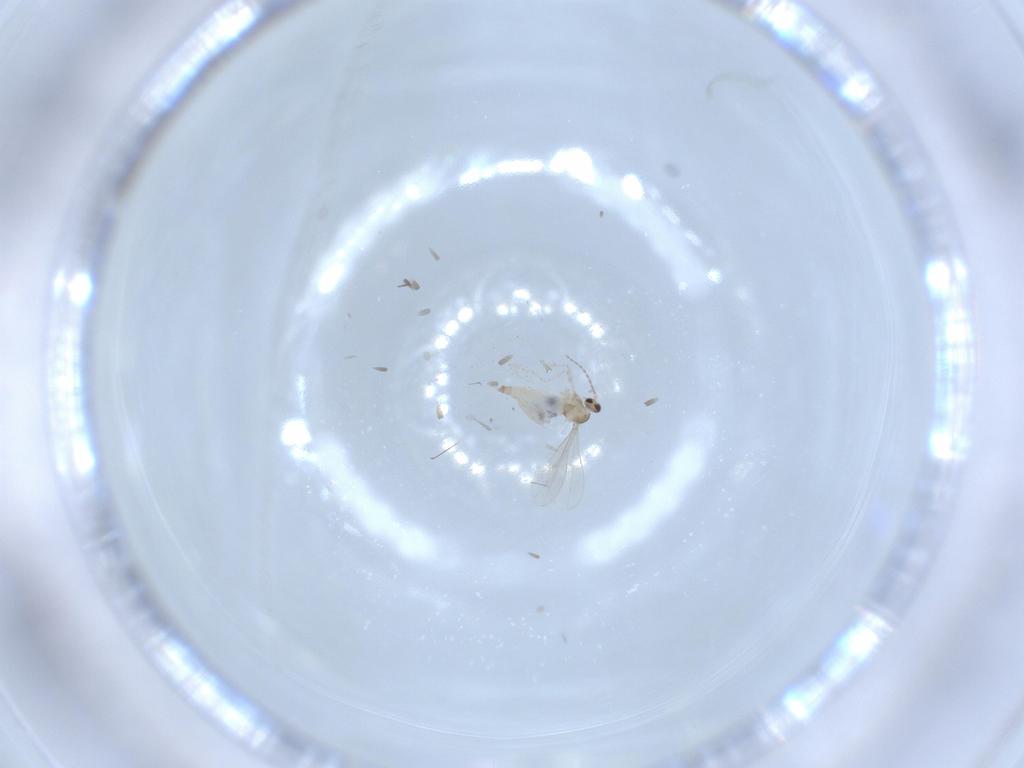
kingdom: Animalia
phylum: Arthropoda
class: Insecta
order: Diptera
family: Cecidomyiidae
